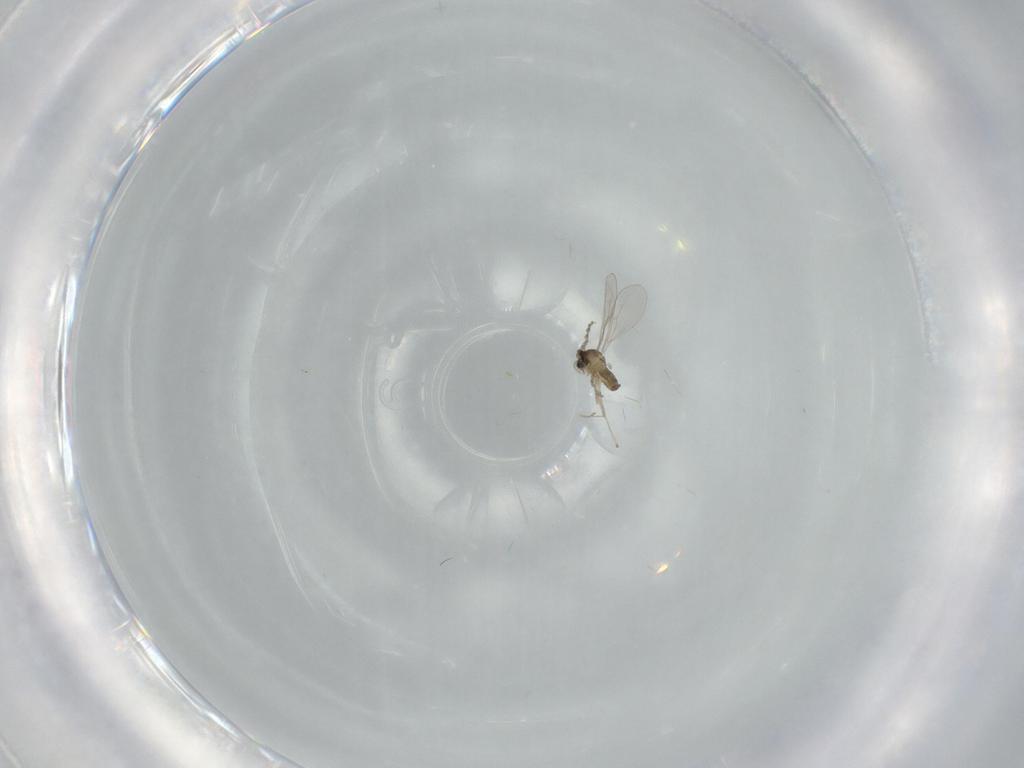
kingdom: Animalia
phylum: Arthropoda
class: Insecta
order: Diptera
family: Cecidomyiidae
